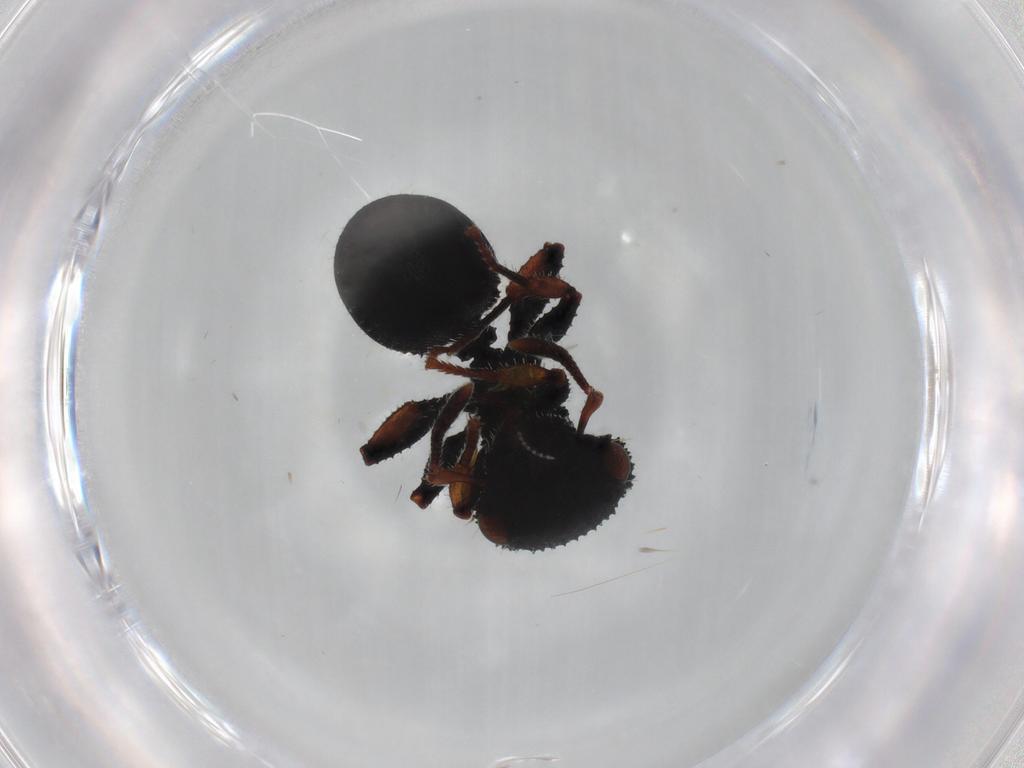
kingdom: Animalia
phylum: Arthropoda
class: Insecta
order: Hymenoptera
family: Formicidae
